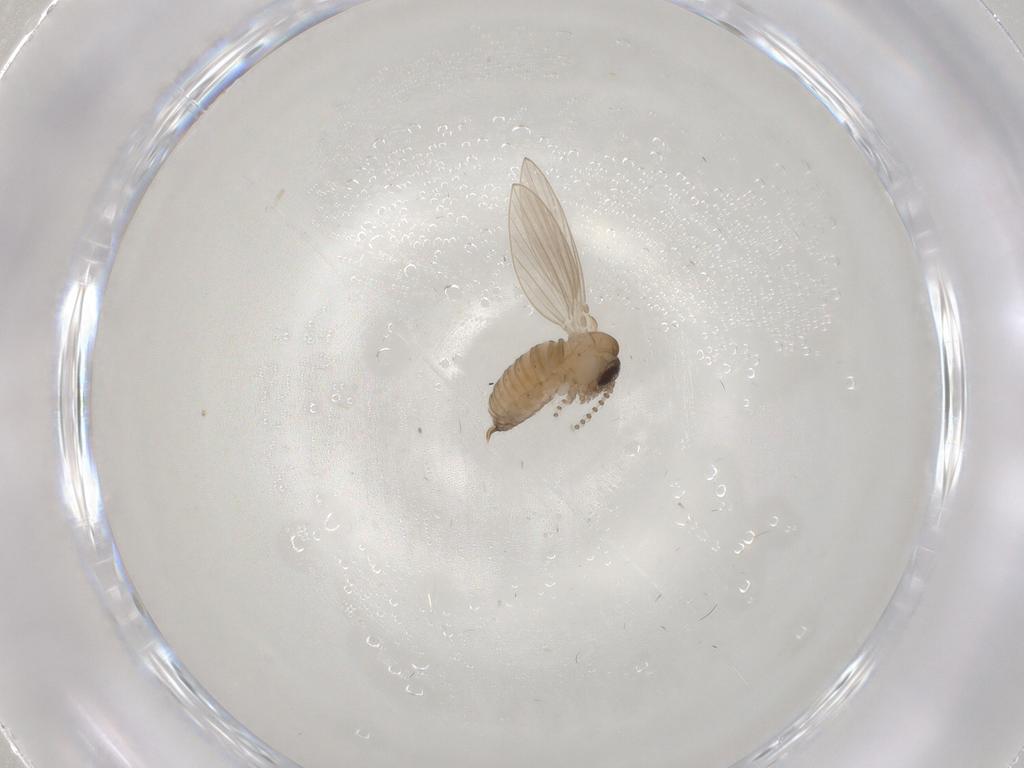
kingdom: Animalia
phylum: Arthropoda
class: Insecta
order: Diptera
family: Psychodidae
